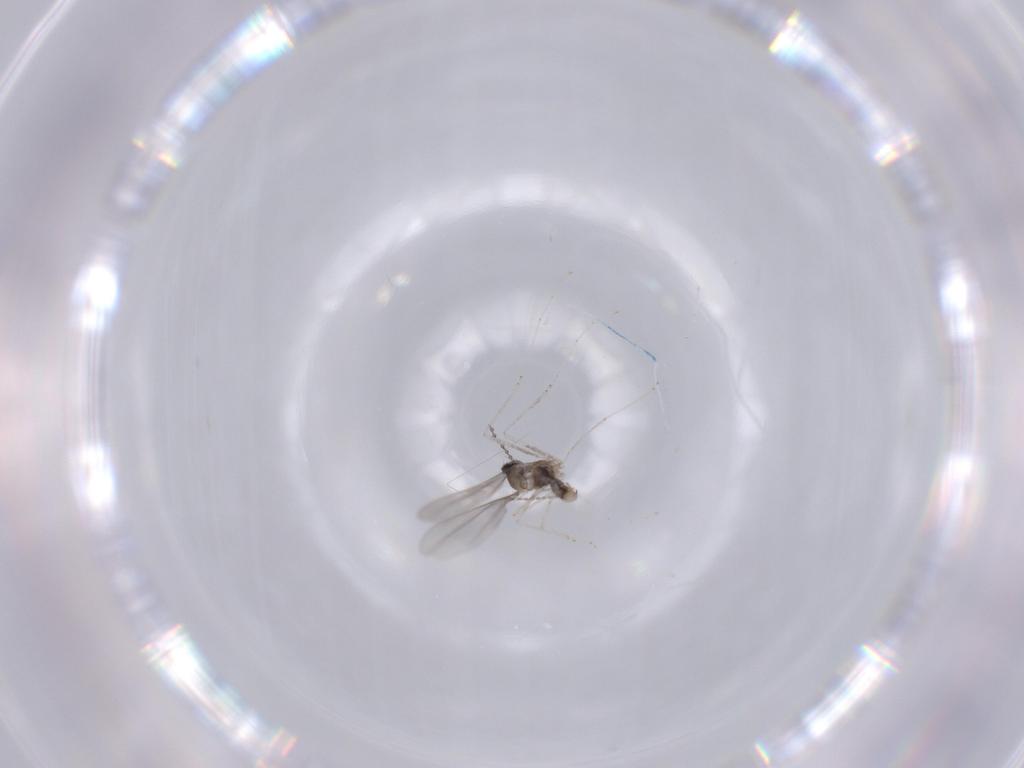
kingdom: Animalia
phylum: Arthropoda
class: Insecta
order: Diptera
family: Cecidomyiidae
